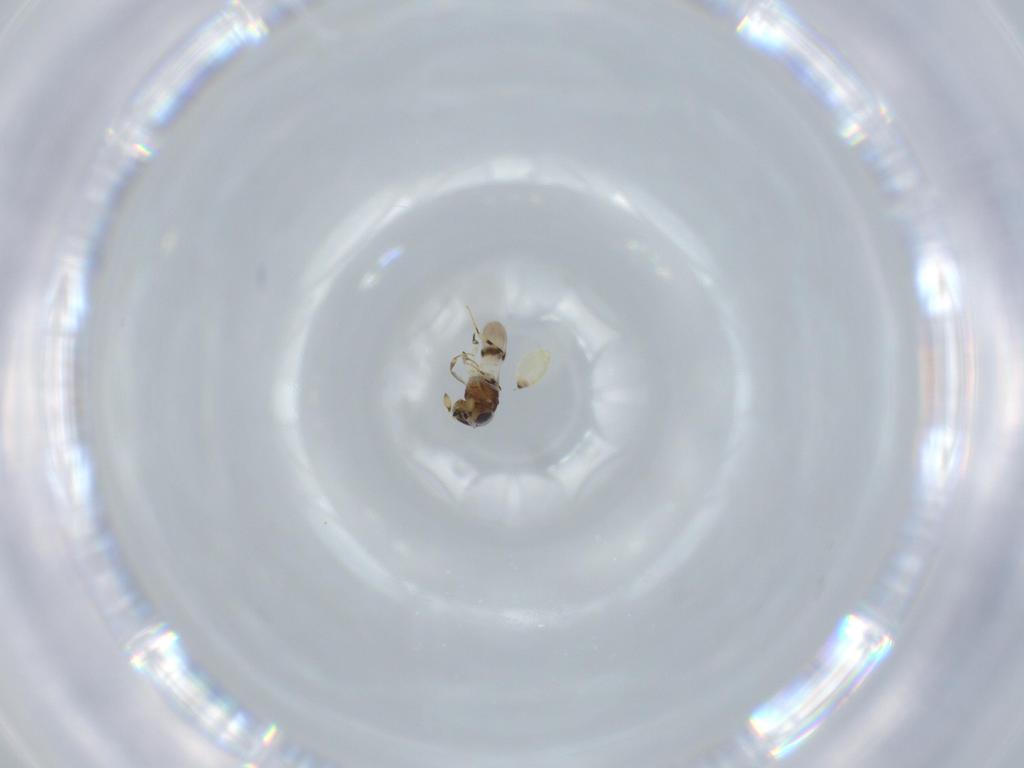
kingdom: Animalia
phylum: Arthropoda
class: Insecta
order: Hymenoptera
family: Scelionidae
